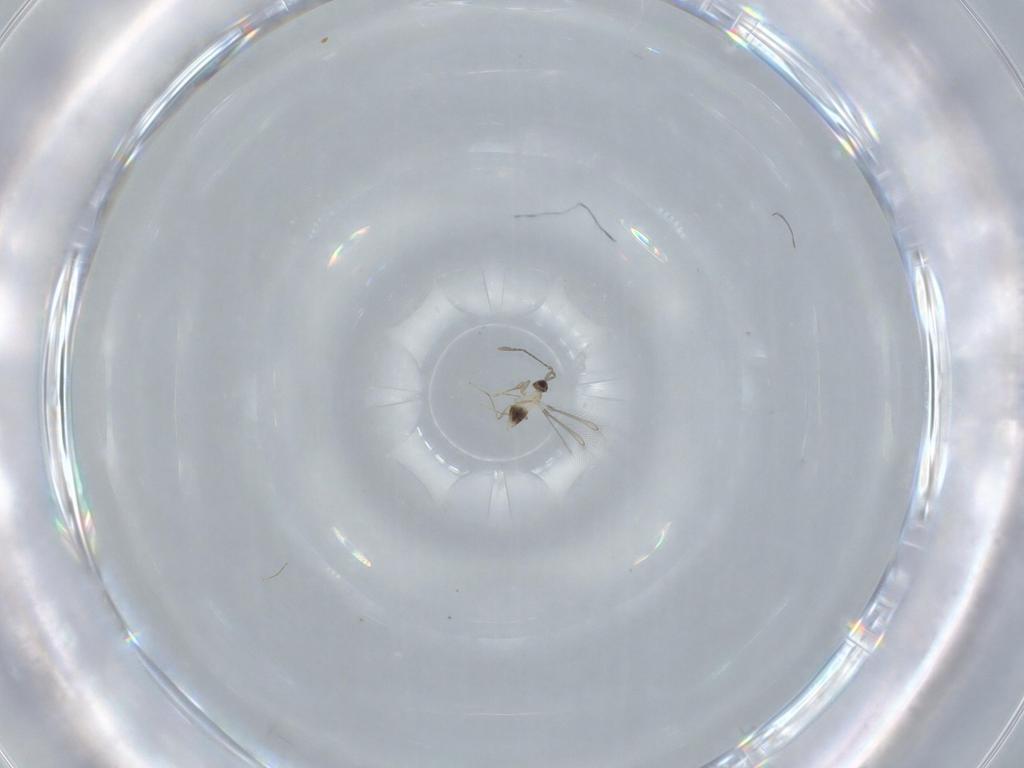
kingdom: Animalia
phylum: Arthropoda
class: Insecta
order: Hymenoptera
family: Mymaridae
